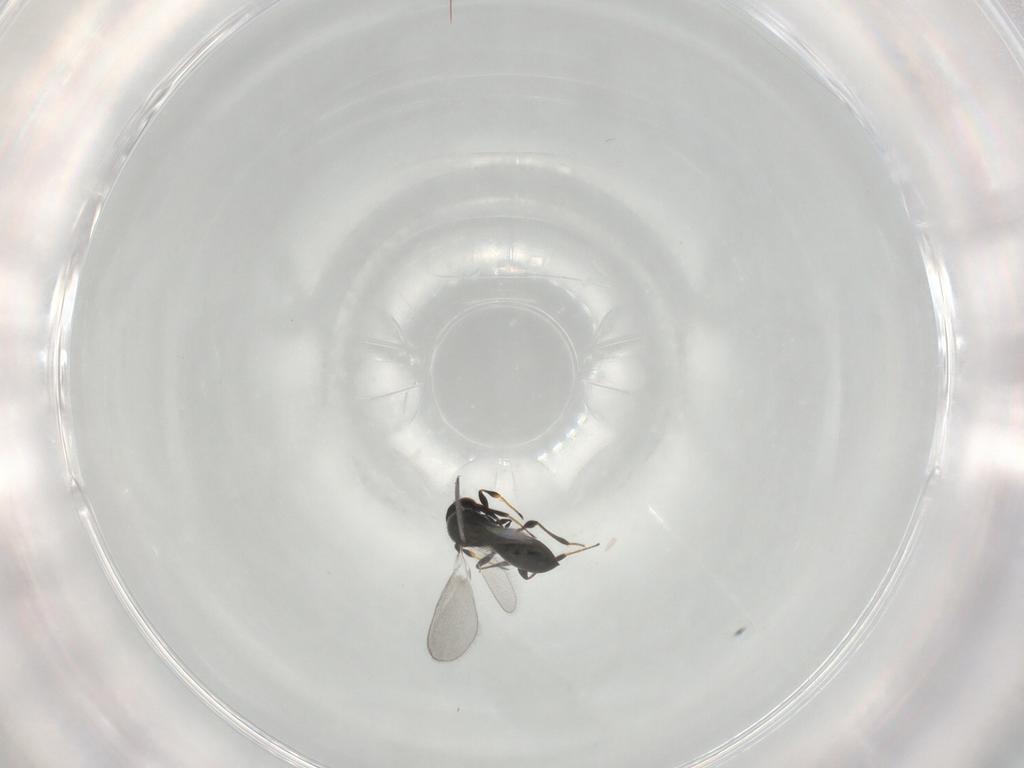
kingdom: Animalia
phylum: Arthropoda
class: Insecta
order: Hymenoptera
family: Platygastridae
